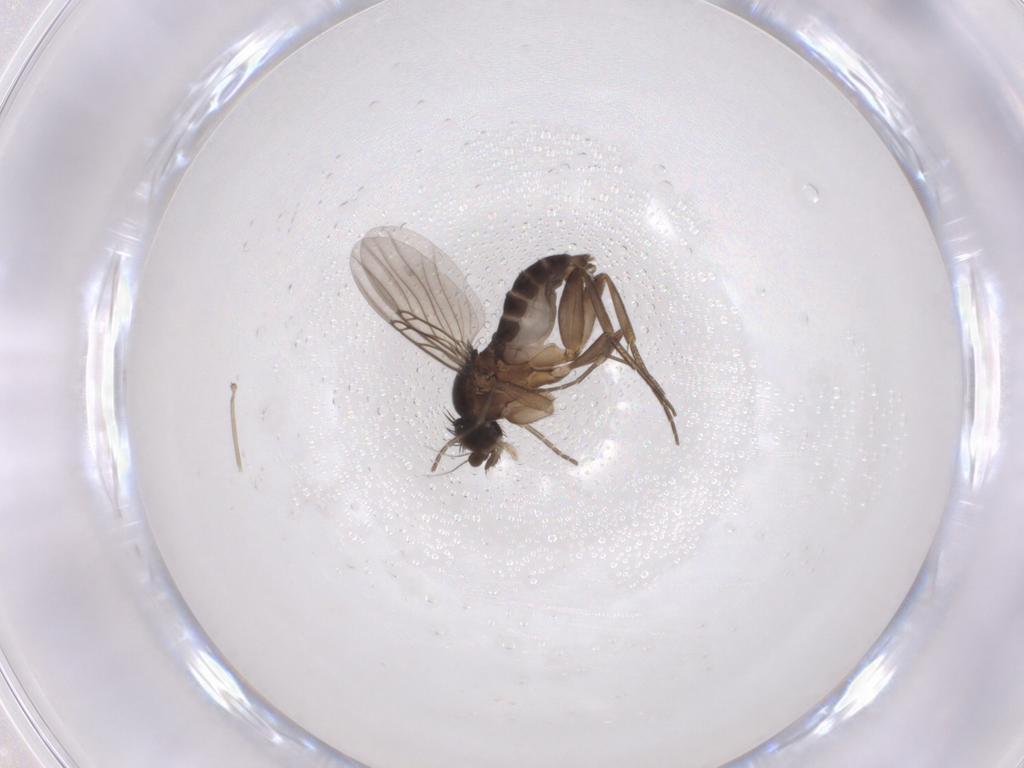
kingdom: Animalia
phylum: Arthropoda
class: Insecta
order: Diptera
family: Phoridae
